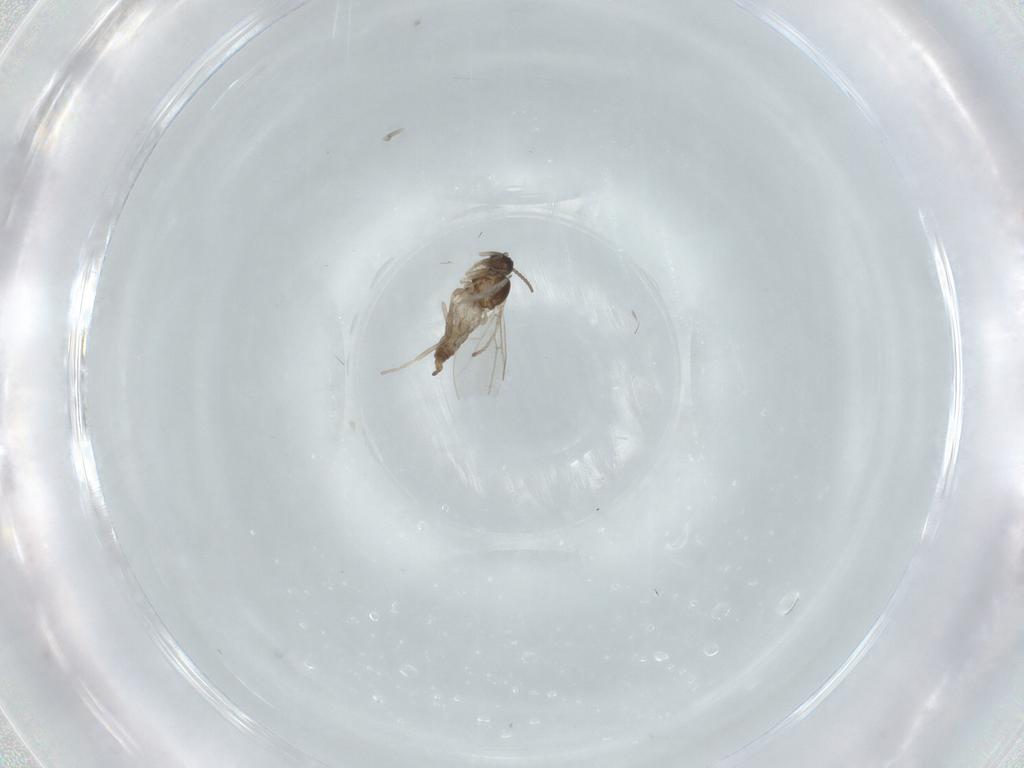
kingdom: Animalia
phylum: Arthropoda
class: Insecta
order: Diptera
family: Cecidomyiidae
